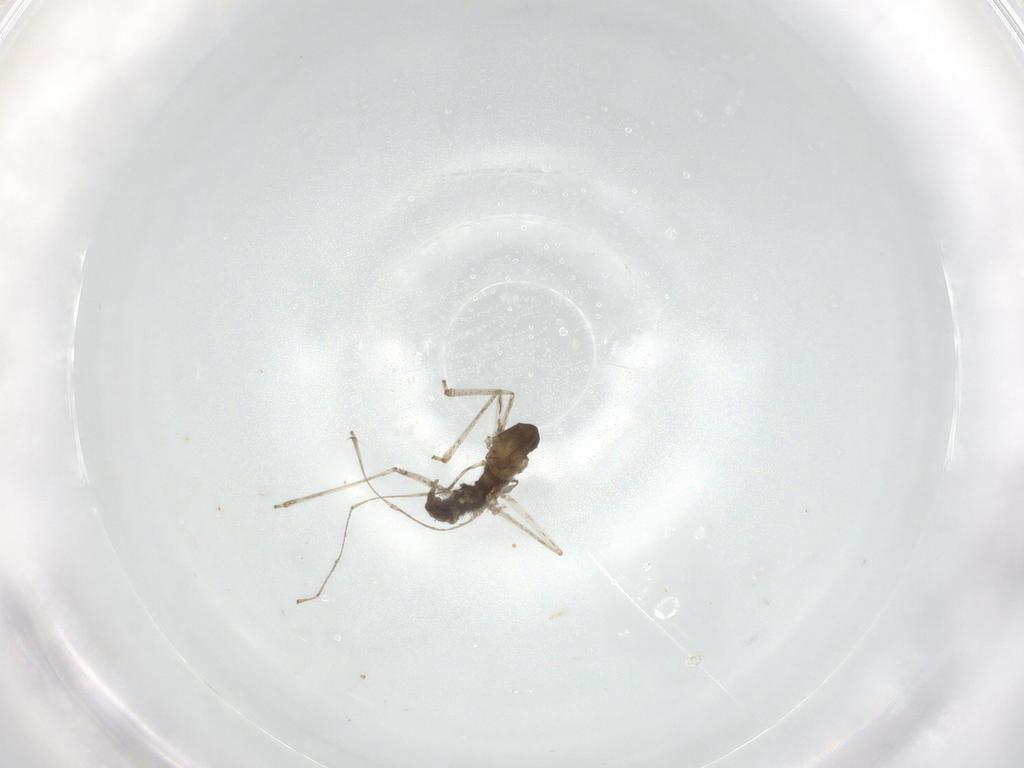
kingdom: Animalia
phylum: Arthropoda
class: Insecta
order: Diptera
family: Cecidomyiidae
